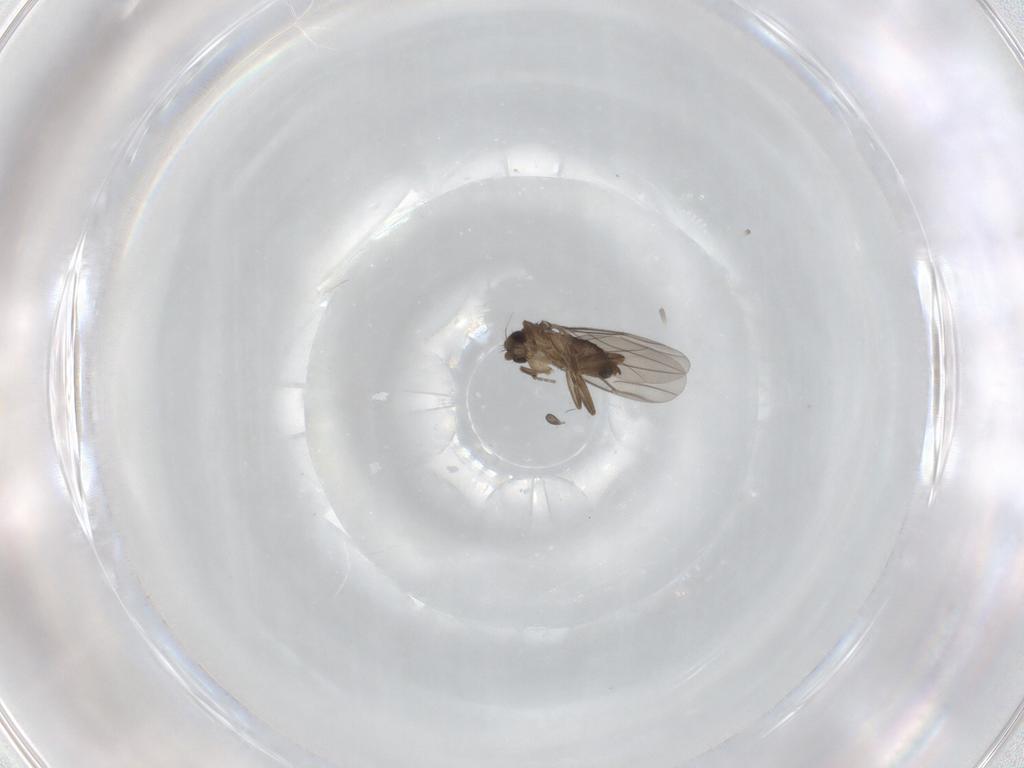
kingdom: Animalia
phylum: Arthropoda
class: Insecta
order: Diptera
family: Phoridae
